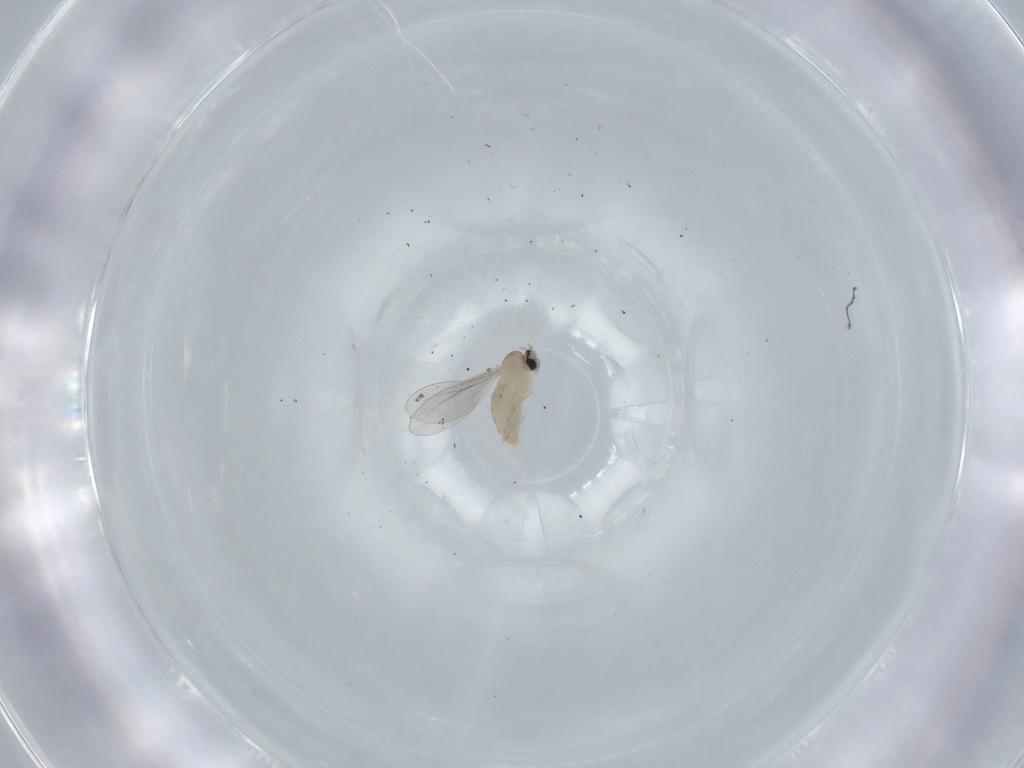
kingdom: Animalia
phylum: Arthropoda
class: Insecta
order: Diptera
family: Cecidomyiidae
